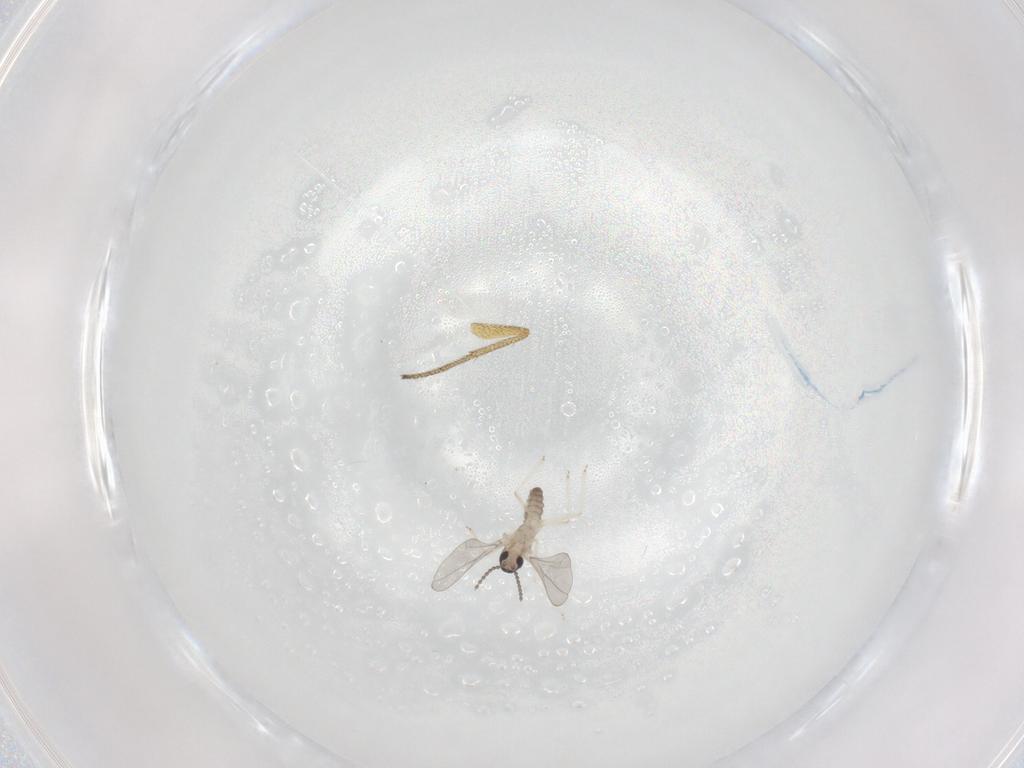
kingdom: Animalia
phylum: Arthropoda
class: Insecta
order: Diptera
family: Cecidomyiidae
